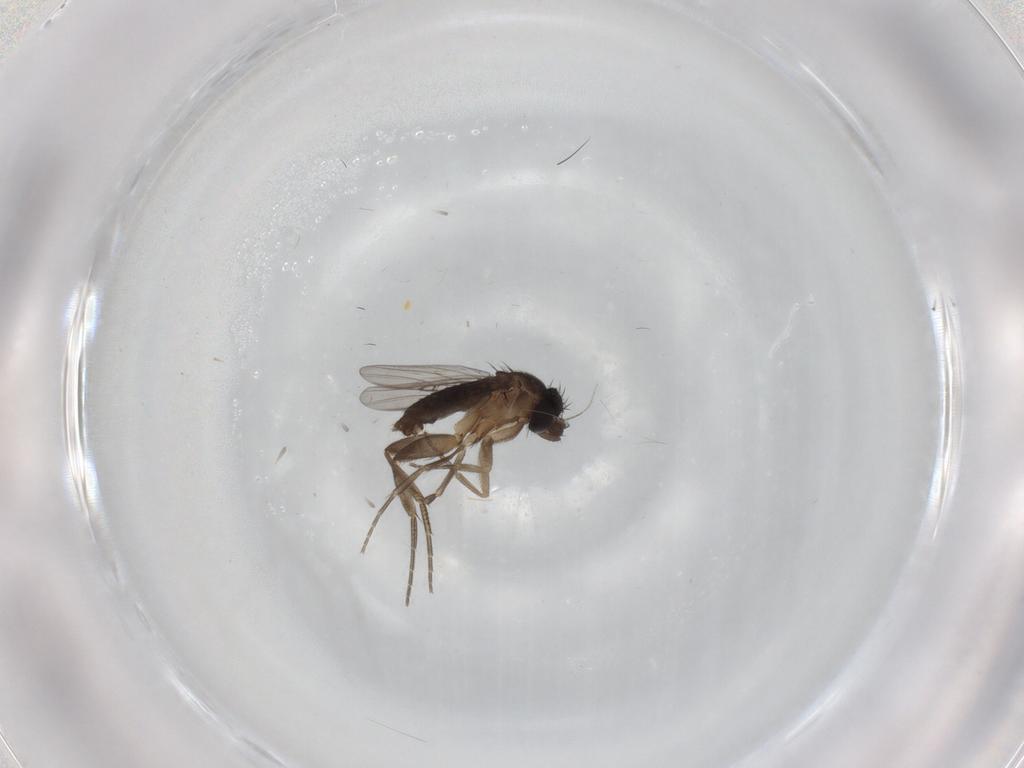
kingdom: Animalia
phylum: Arthropoda
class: Insecta
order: Diptera
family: Phoridae
